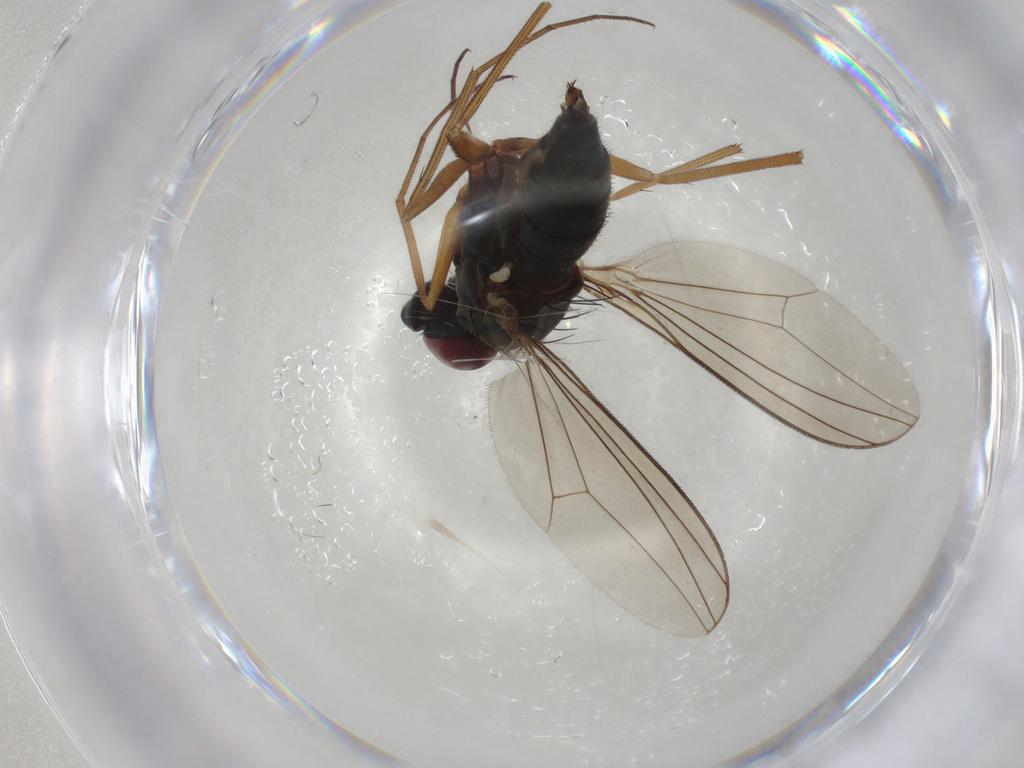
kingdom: Animalia
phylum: Arthropoda
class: Insecta
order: Diptera
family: Dolichopodidae
